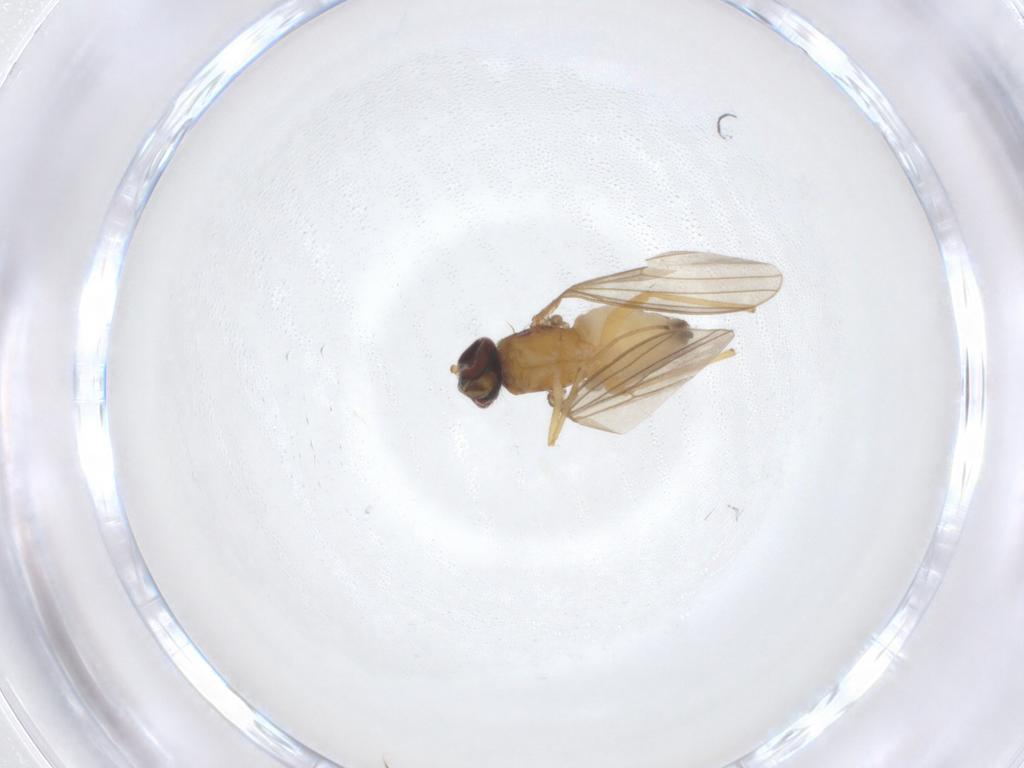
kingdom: Animalia
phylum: Arthropoda
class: Insecta
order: Diptera
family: Dolichopodidae
